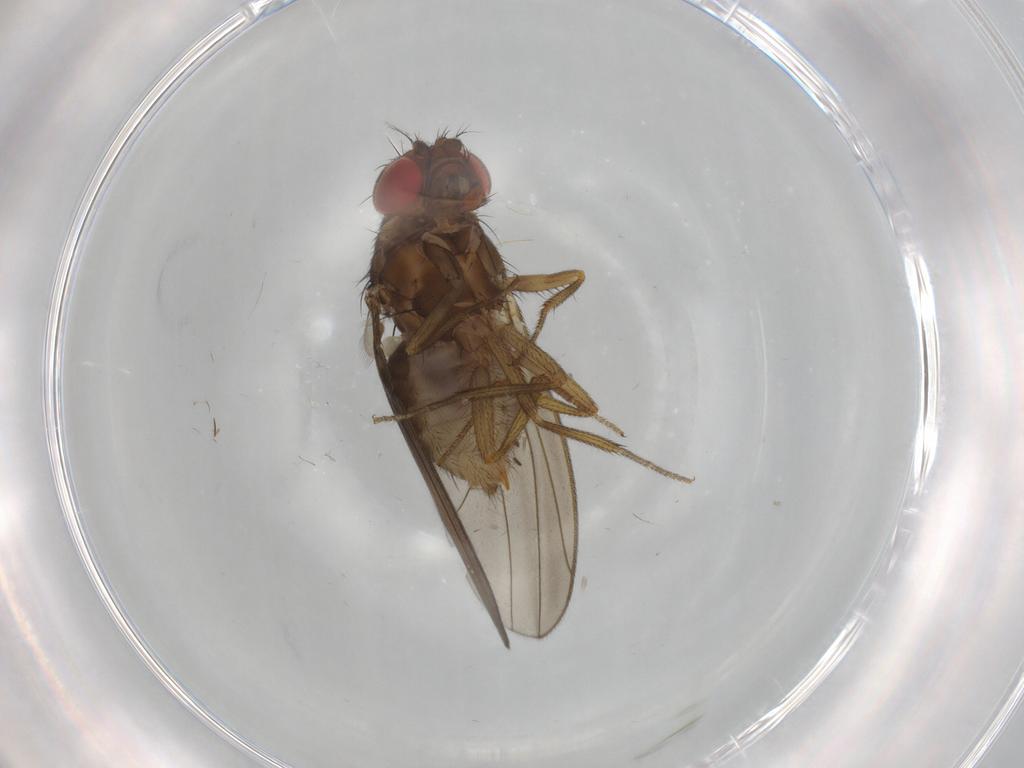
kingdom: Animalia
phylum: Arthropoda
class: Insecta
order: Diptera
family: Drosophilidae
